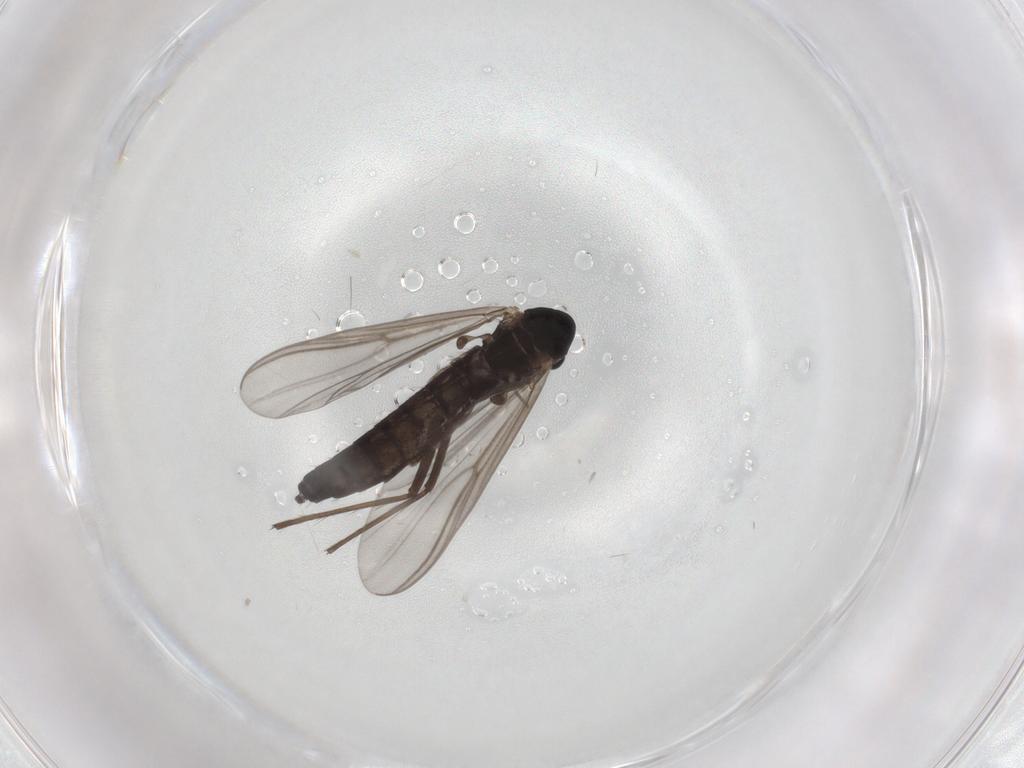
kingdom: Animalia
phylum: Arthropoda
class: Insecta
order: Diptera
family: Chironomidae
